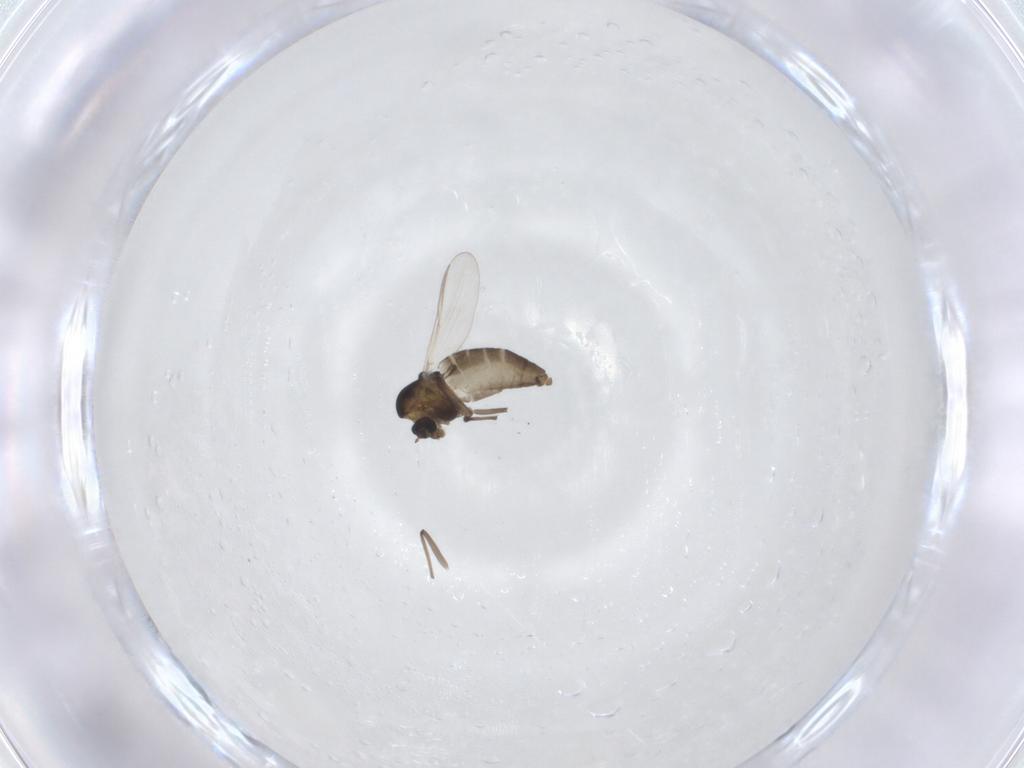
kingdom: Animalia
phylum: Arthropoda
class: Insecta
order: Diptera
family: Chironomidae
